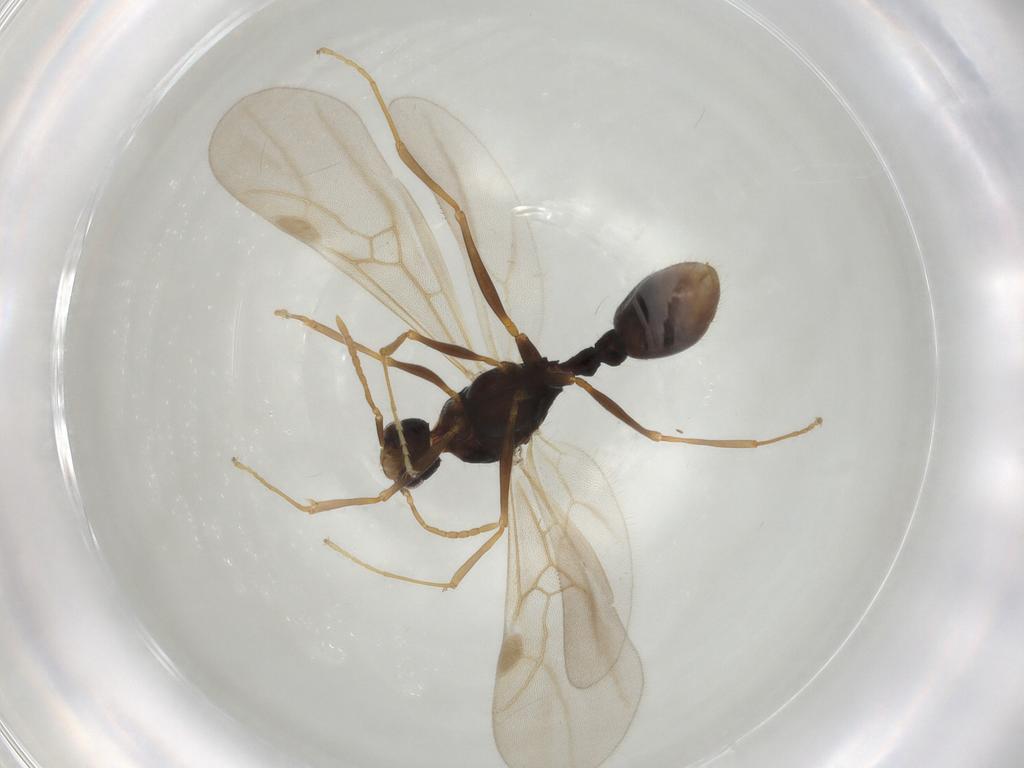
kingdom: Animalia
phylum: Arthropoda
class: Insecta
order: Hymenoptera
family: Formicidae
